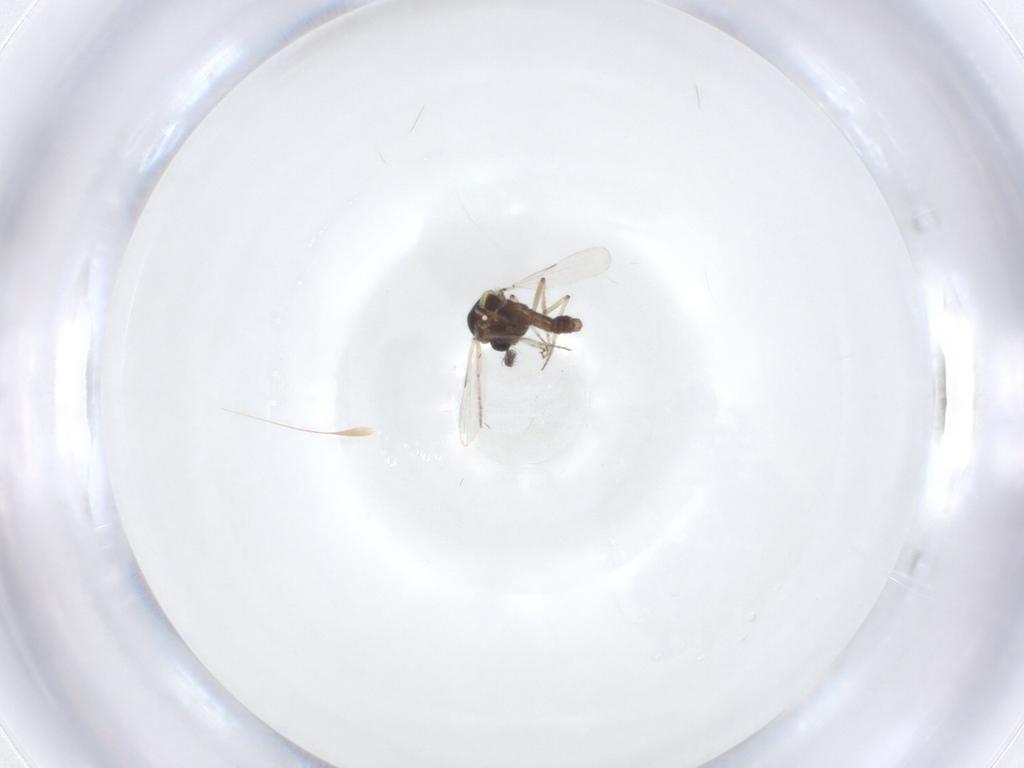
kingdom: Animalia
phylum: Arthropoda
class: Insecta
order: Diptera
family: Ceratopogonidae
